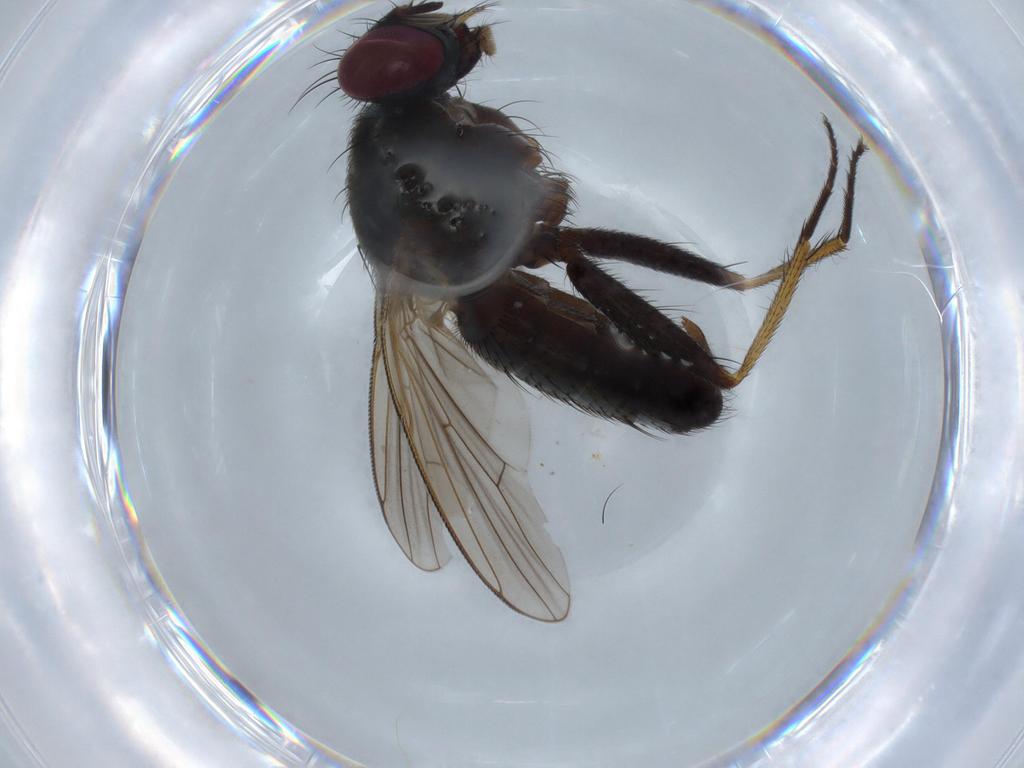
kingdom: Animalia
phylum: Arthropoda
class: Insecta
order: Diptera
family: Muscidae
